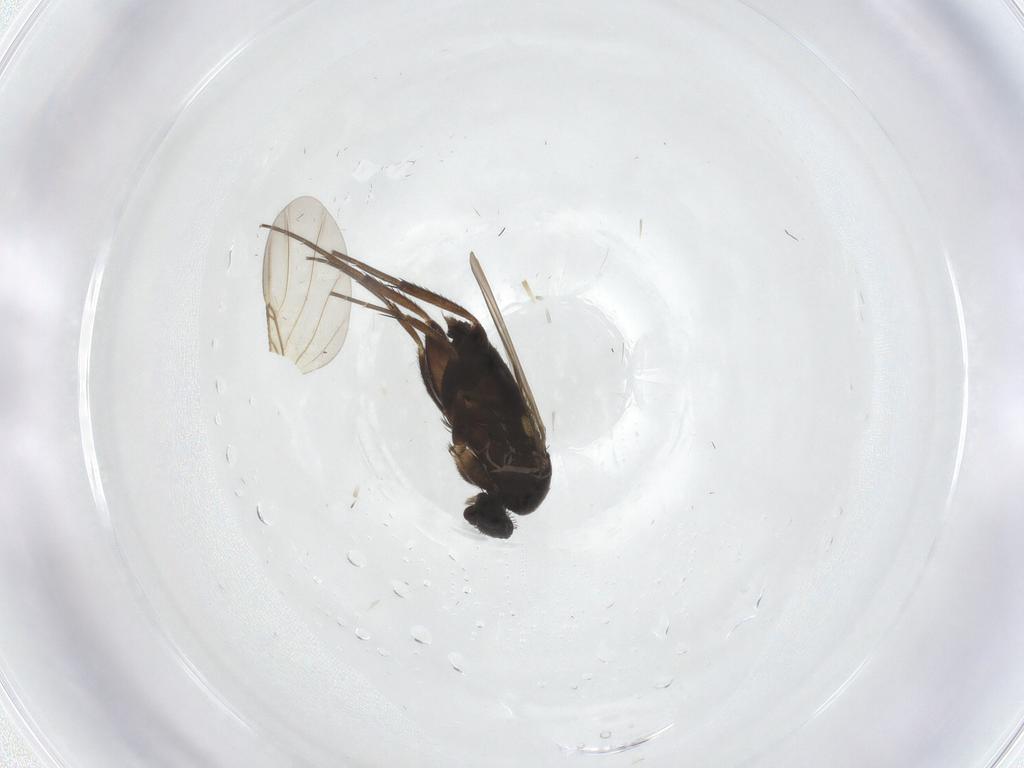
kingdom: Animalia
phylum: Arthropoda
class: Insecta
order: Diptera
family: Phoridae
